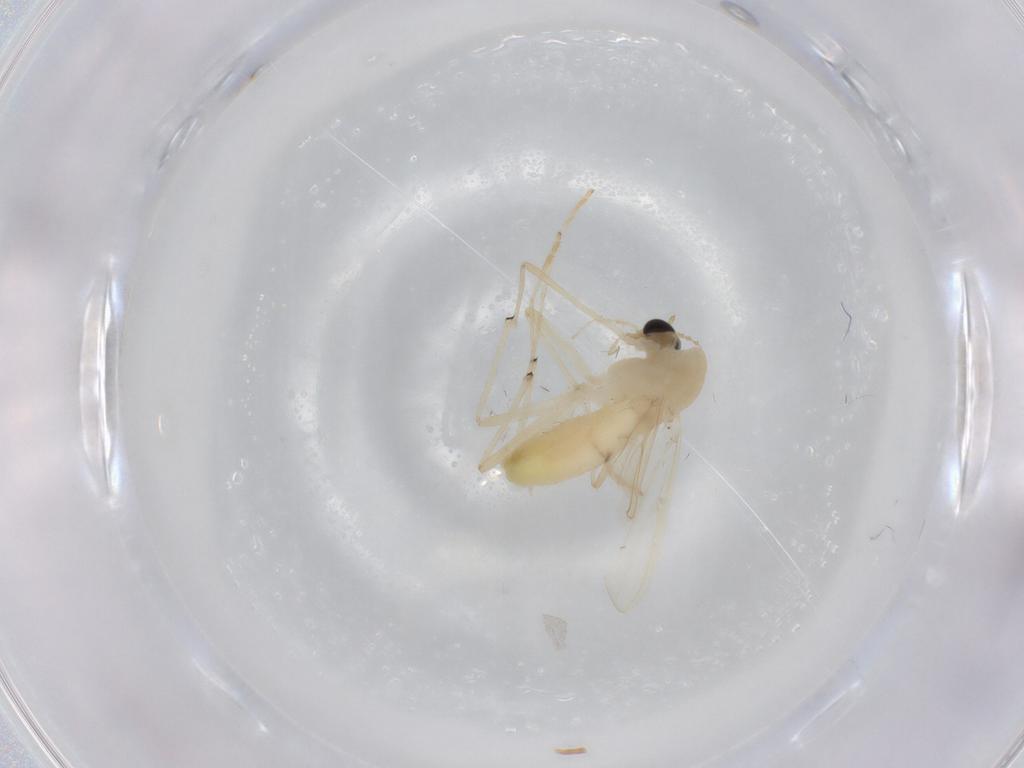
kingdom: Animalia
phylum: Arthropoda
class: Insecta
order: Diptera
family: Chironomidae
